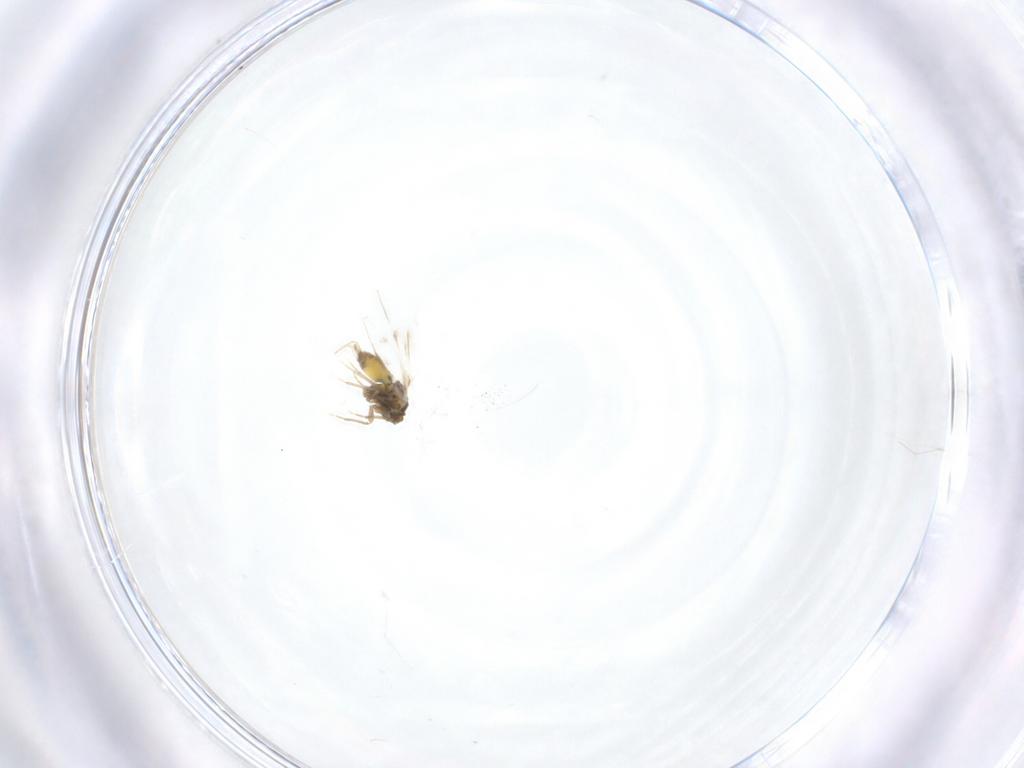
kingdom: Animalia
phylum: Arthropoda
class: Insecta
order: Hemiptera
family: Aleyrodidae
